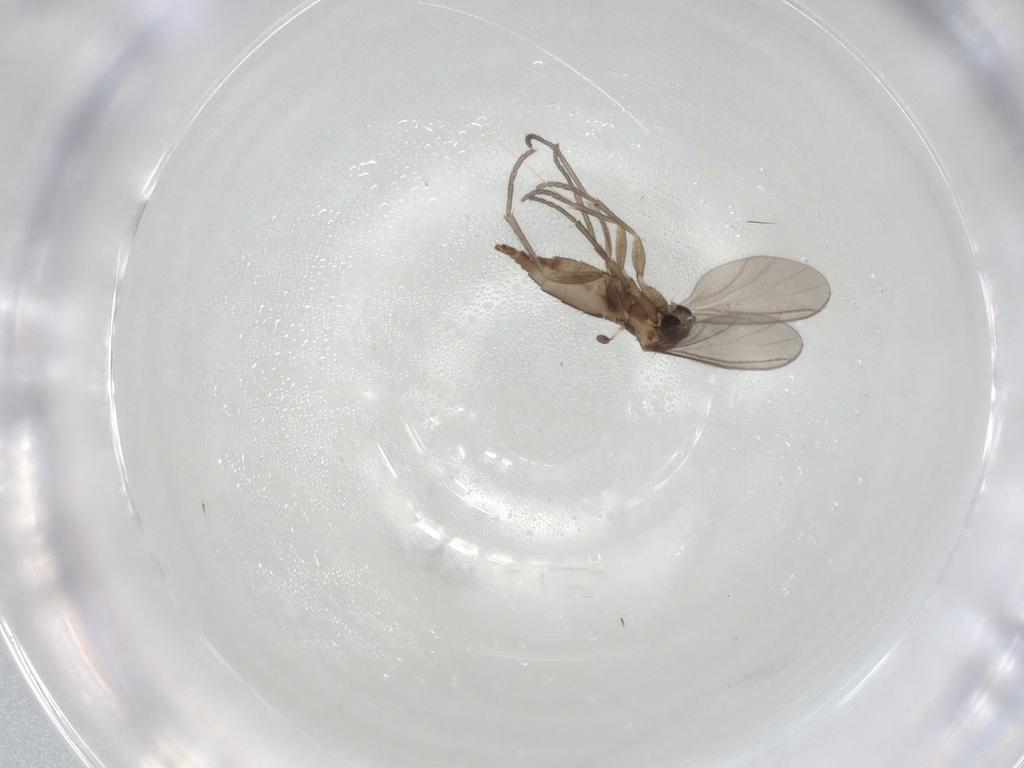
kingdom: Animalia
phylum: Arthropoda
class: Insecta
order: Diptera
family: Sciaridae
